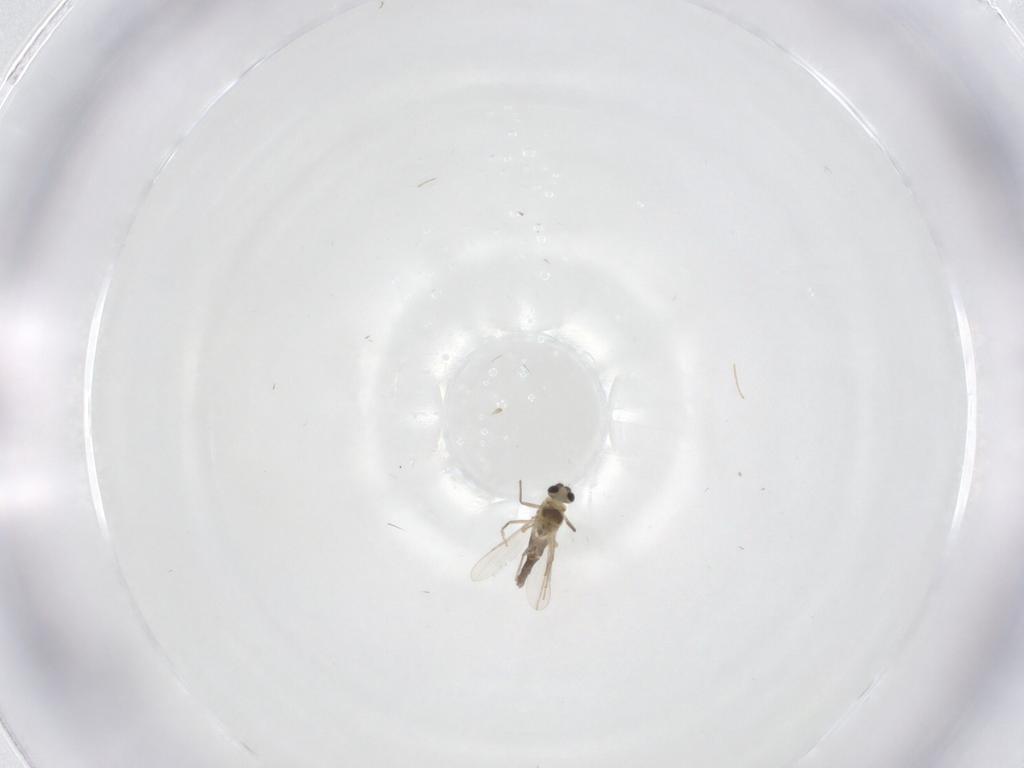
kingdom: Animalia
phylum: Arthropoda
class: Insecta
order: Diptera
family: Chironomidae
